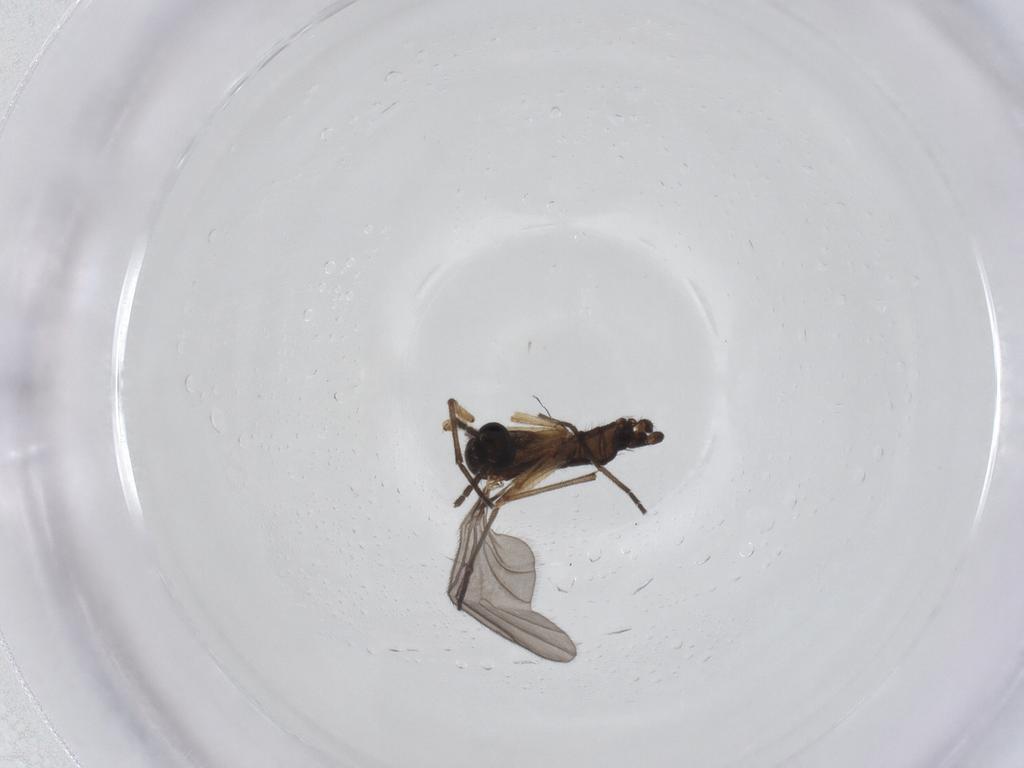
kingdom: Animalia
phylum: Arthropoda
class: Insecta
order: Diptera
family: Sciaridae
